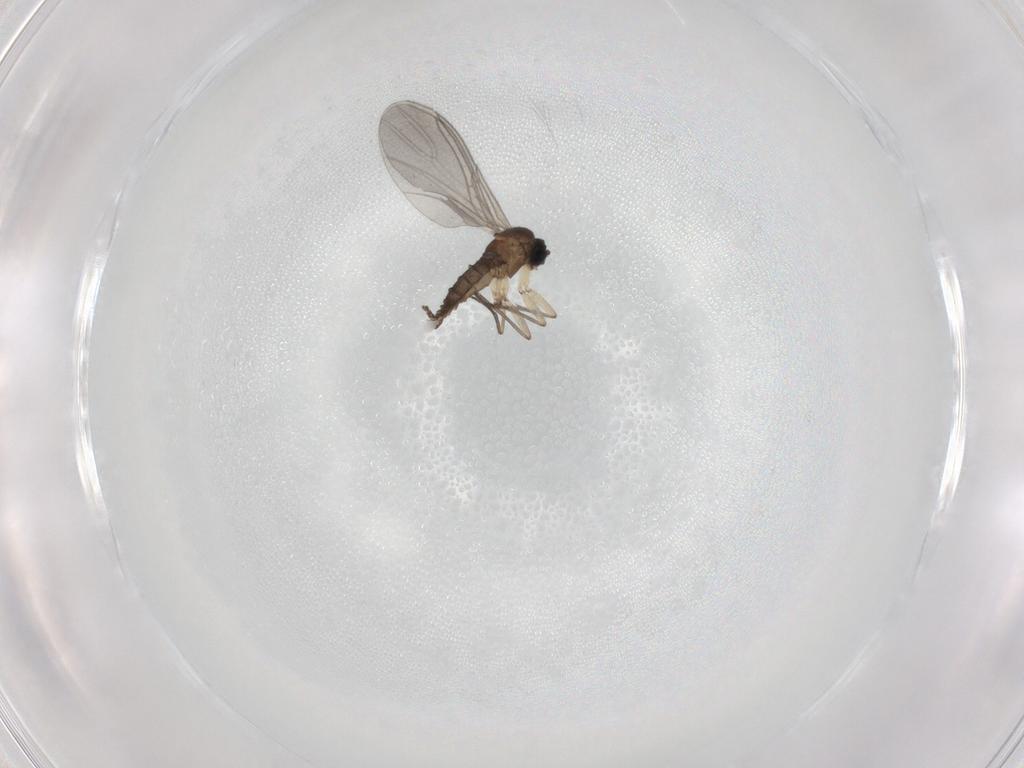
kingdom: Animalia
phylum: Arthropoda
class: Insecta
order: Diptera
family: Sciaridae
